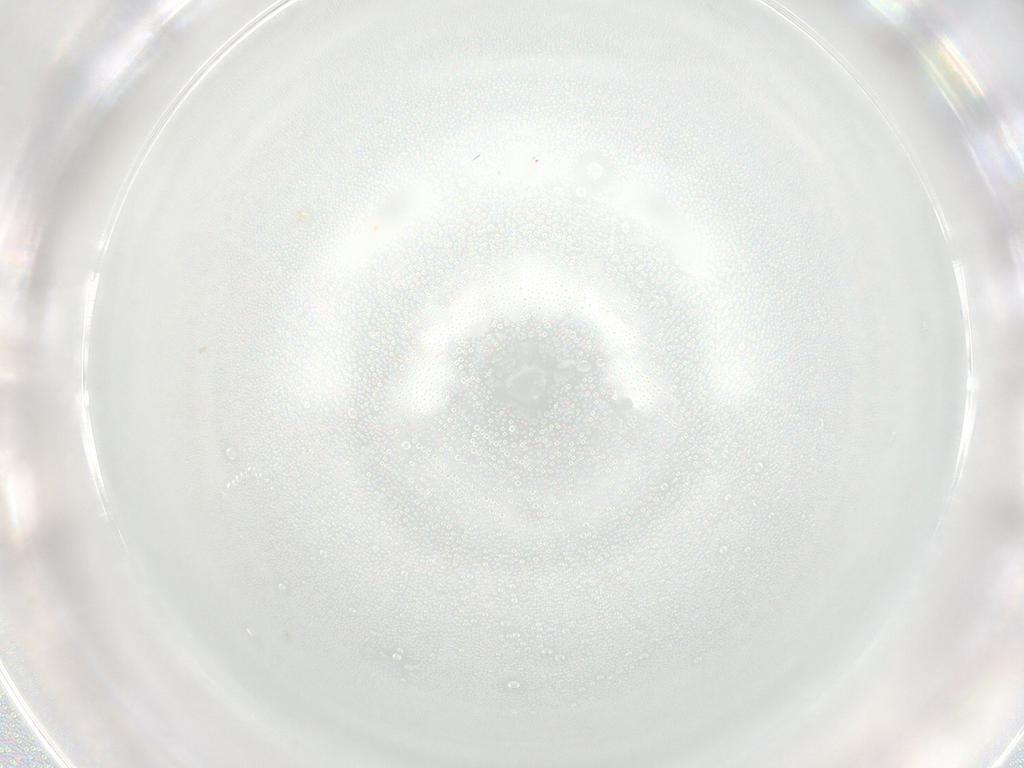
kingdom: Animalia
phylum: Arthropoda
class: Insecta
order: Diptera
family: Sciaridae
